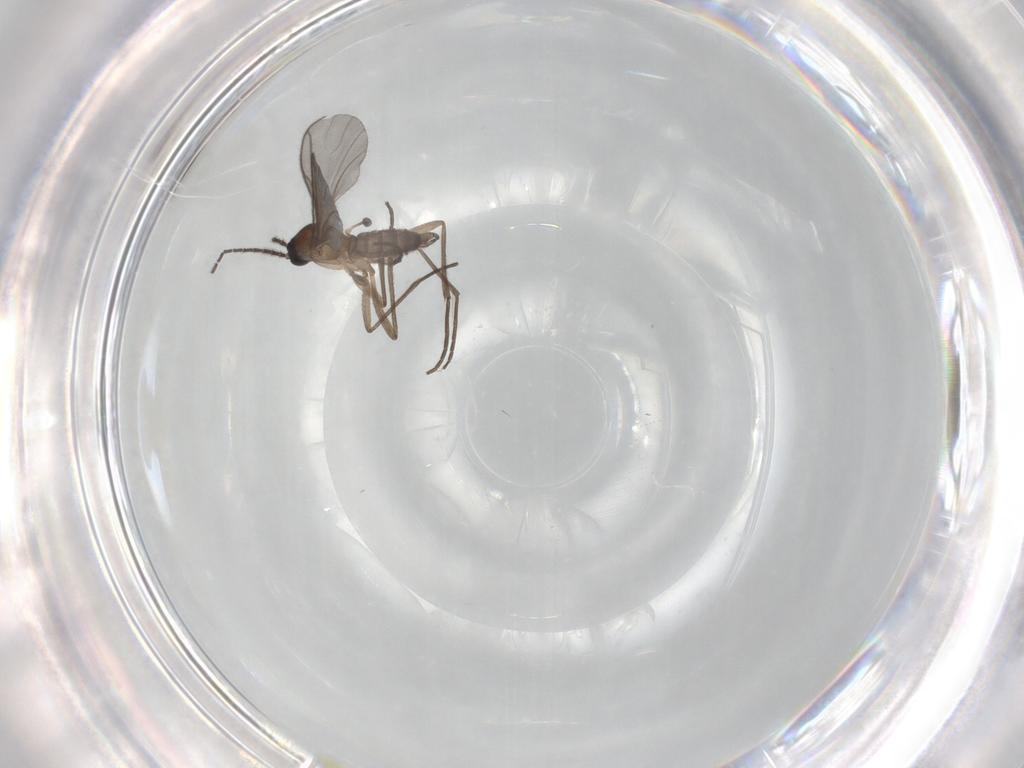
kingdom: Animalia
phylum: Arthropoda
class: Insecta
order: Diptera
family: Sciaridae
